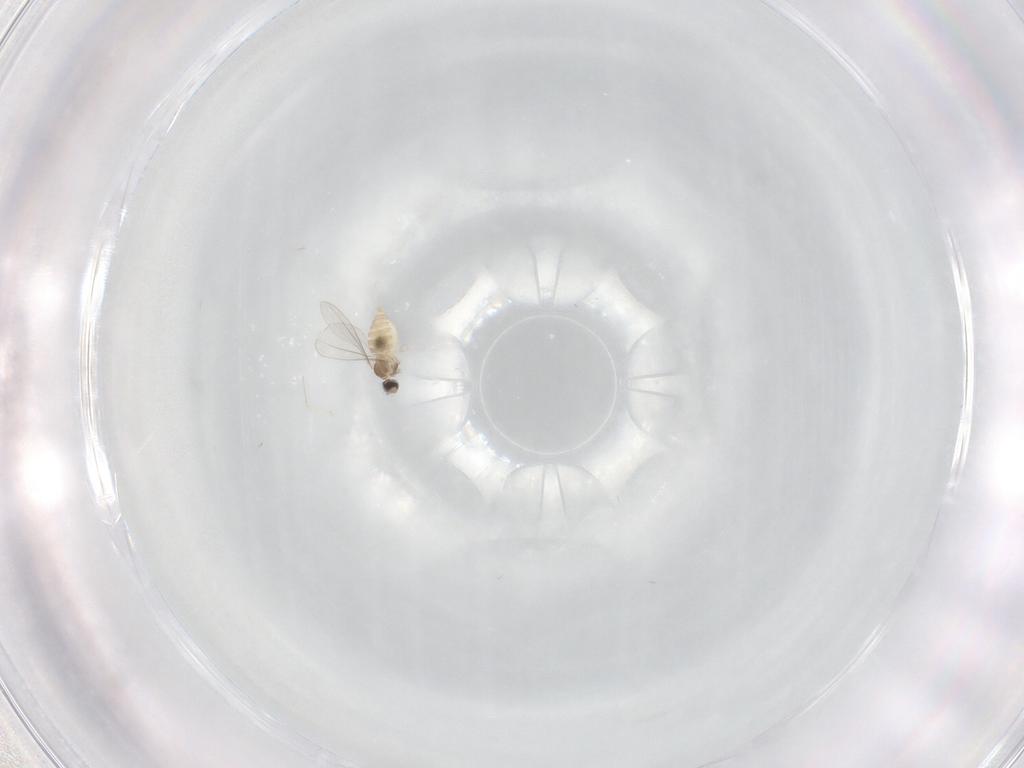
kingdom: Animalia
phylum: Arthropoda
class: Insecta
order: Diptera
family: Cecidomyiidae
